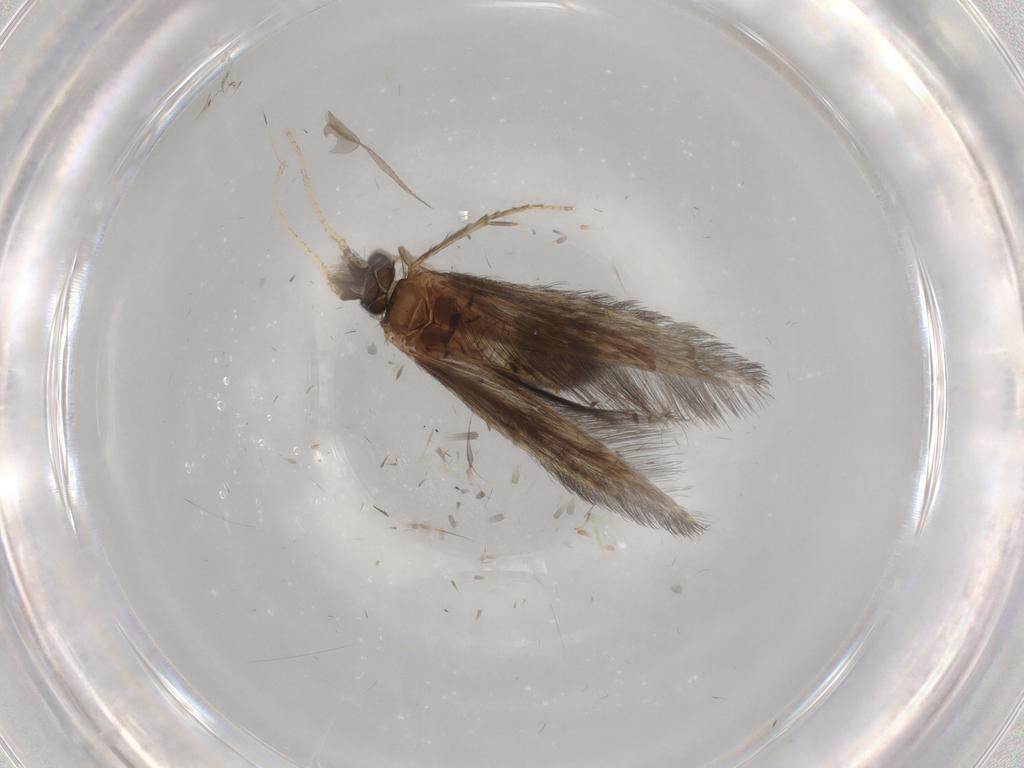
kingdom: Animalia
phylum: Arthropoda
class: Insecta
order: Trichoptera
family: Hydroptilidae
